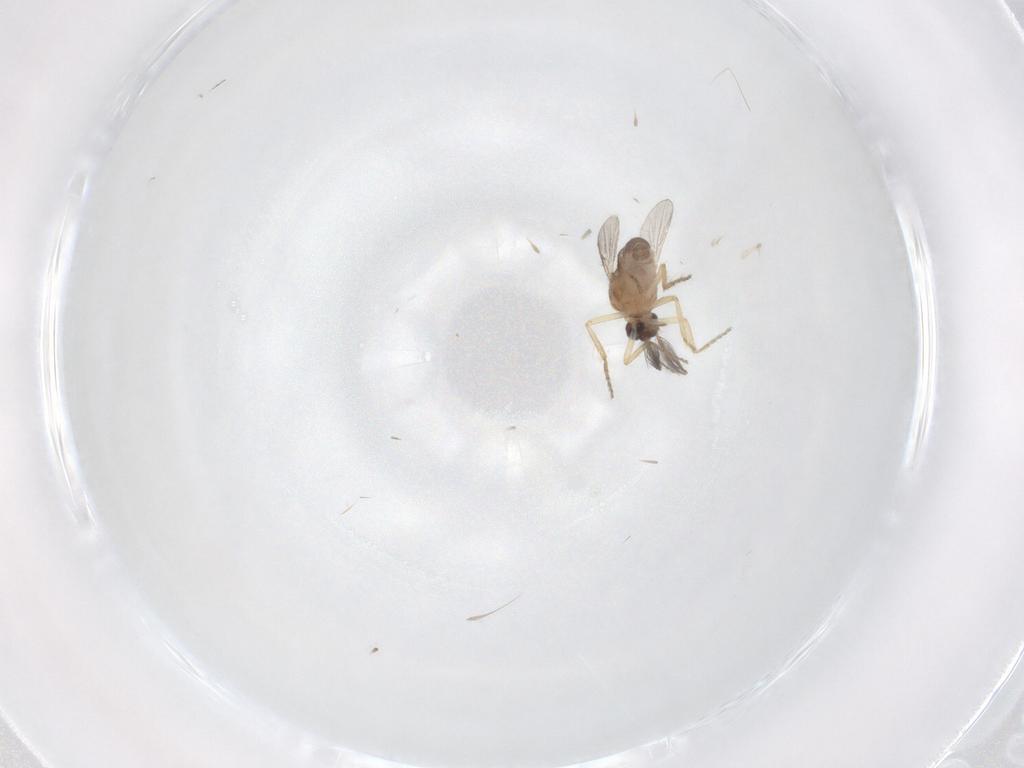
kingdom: Animalia
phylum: Arthropoda
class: Insecta
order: Diptera
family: Ceratopogonidae
